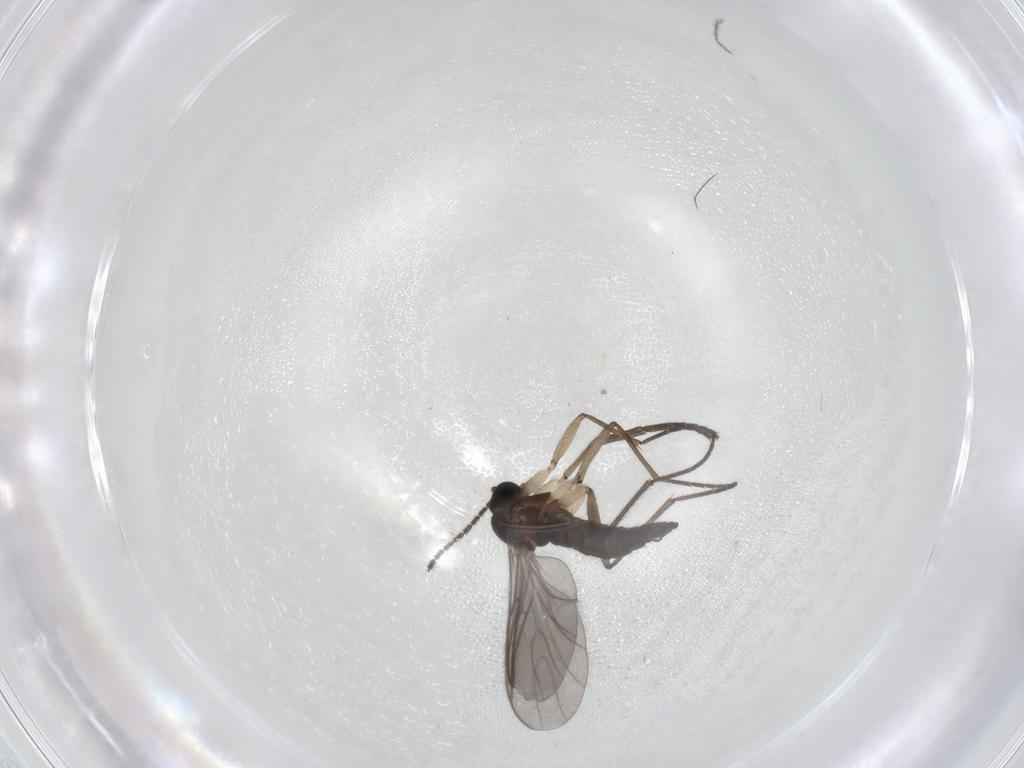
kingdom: Animalia
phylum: Arthropoda
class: Insecta
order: Diptera
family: Sciaridae
